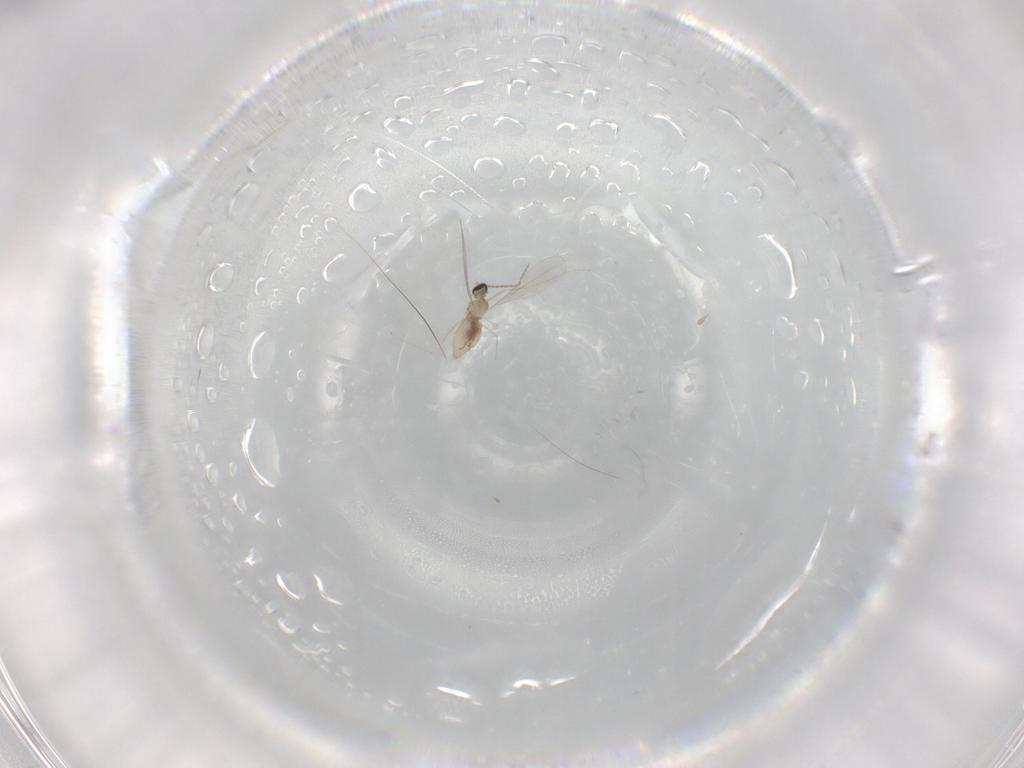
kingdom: Animalia
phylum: Arthropoda
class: Insecta
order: Diptera
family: Cecidomyiidae
